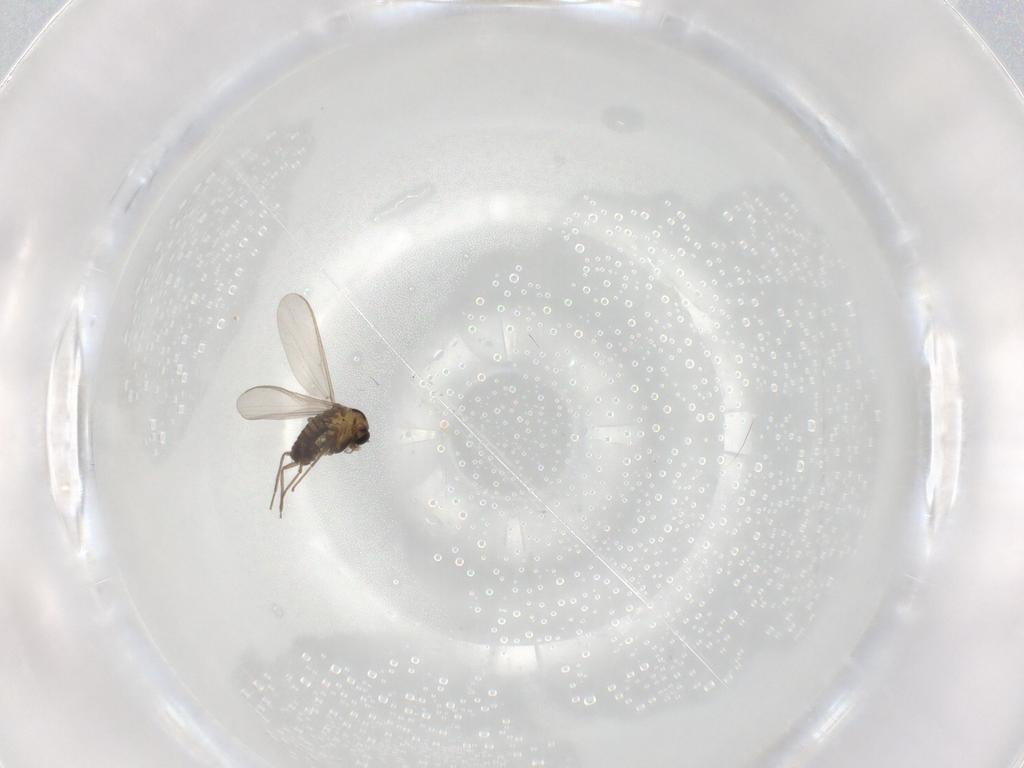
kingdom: Animalia
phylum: Arthropoda
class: Insecta
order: Diptera
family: Chironomidae
